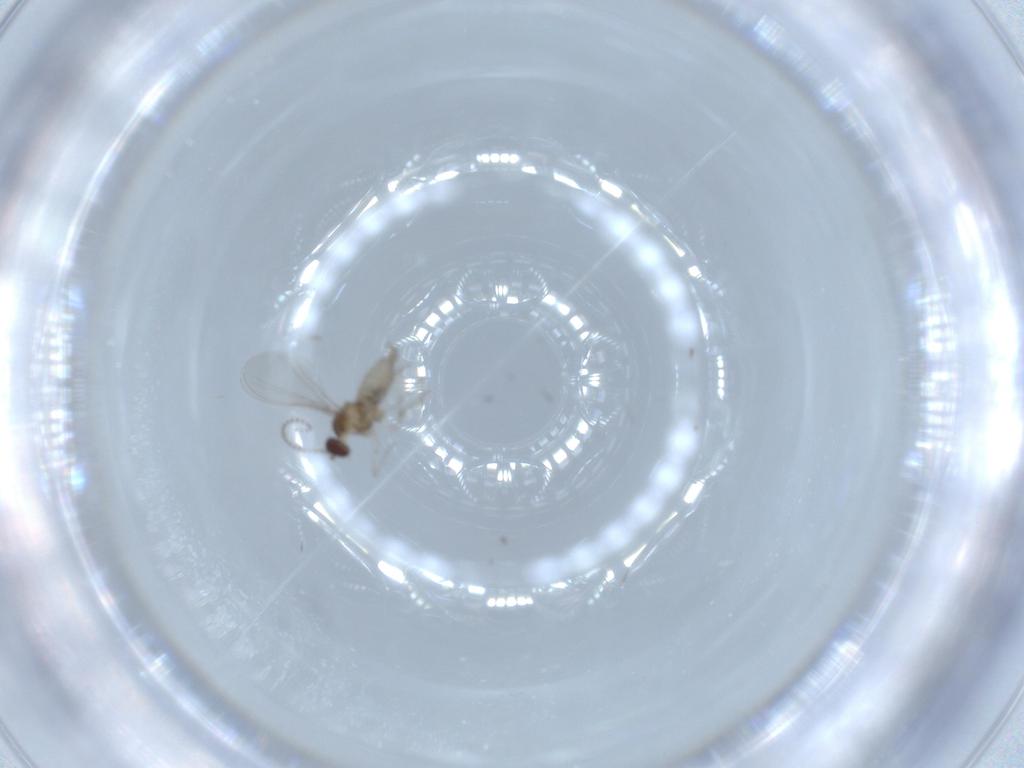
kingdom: Animalia
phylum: Arthropoda
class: Insecta
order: Diptera
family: Cecidomyiidae
